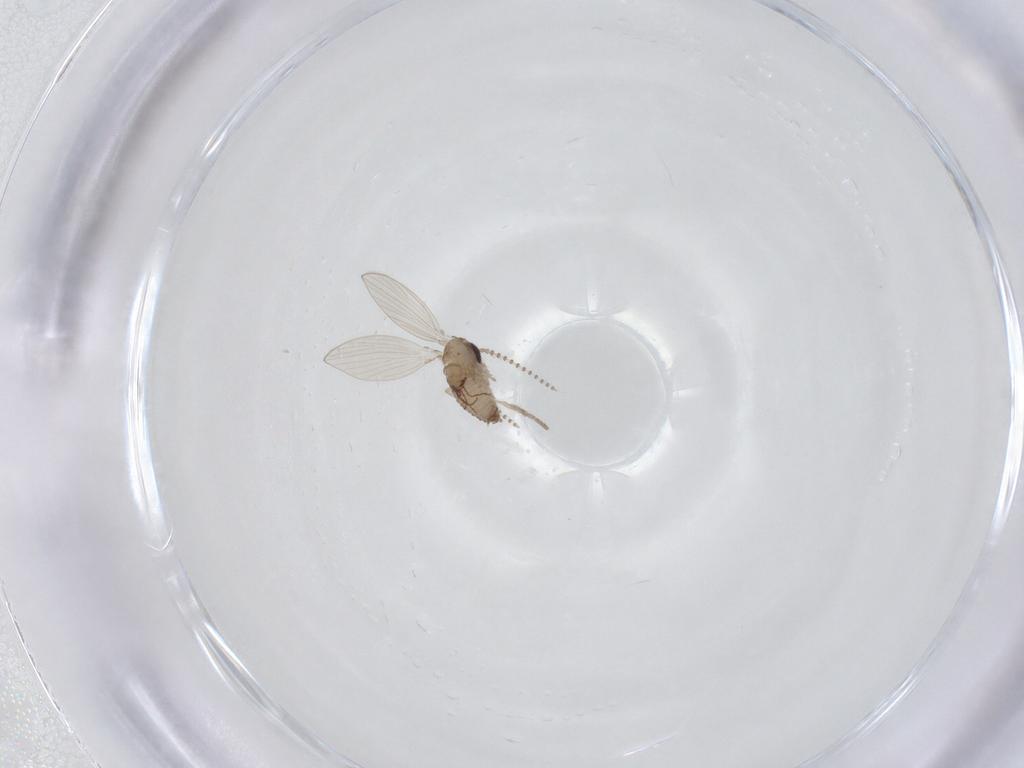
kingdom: Animalia
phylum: Arthropoda
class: Insecta
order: Diptera
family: Psychodidae
